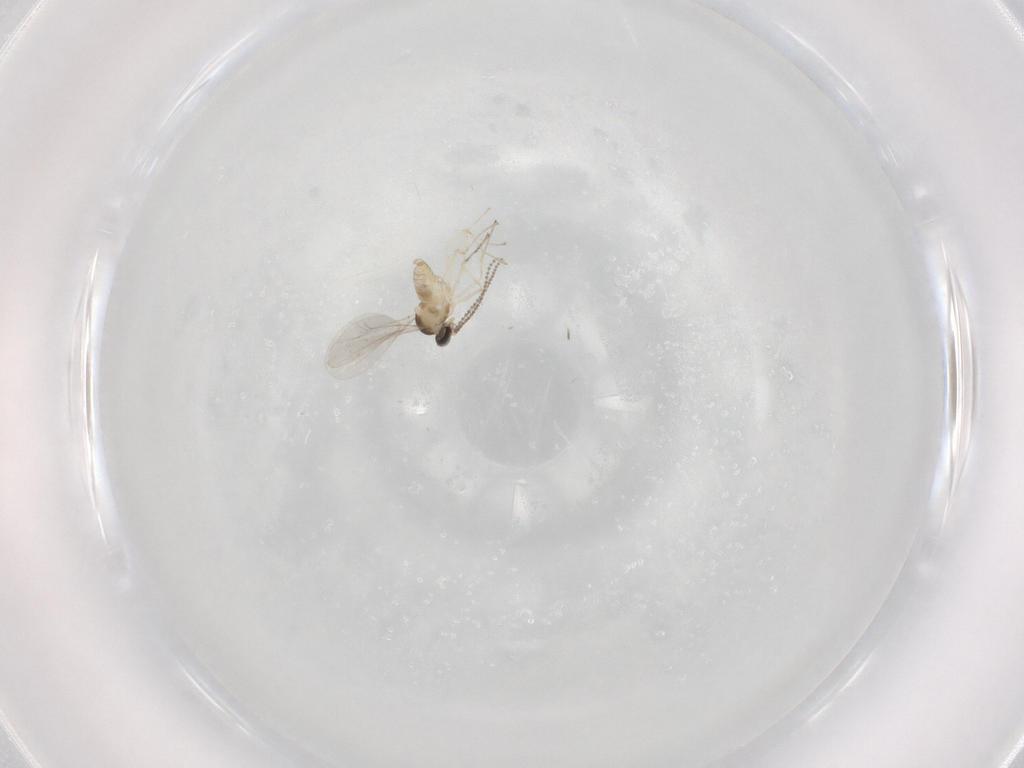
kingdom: Animalia
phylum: Arthropoda
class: Insecta
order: Diptera
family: Cecidomyiidae
